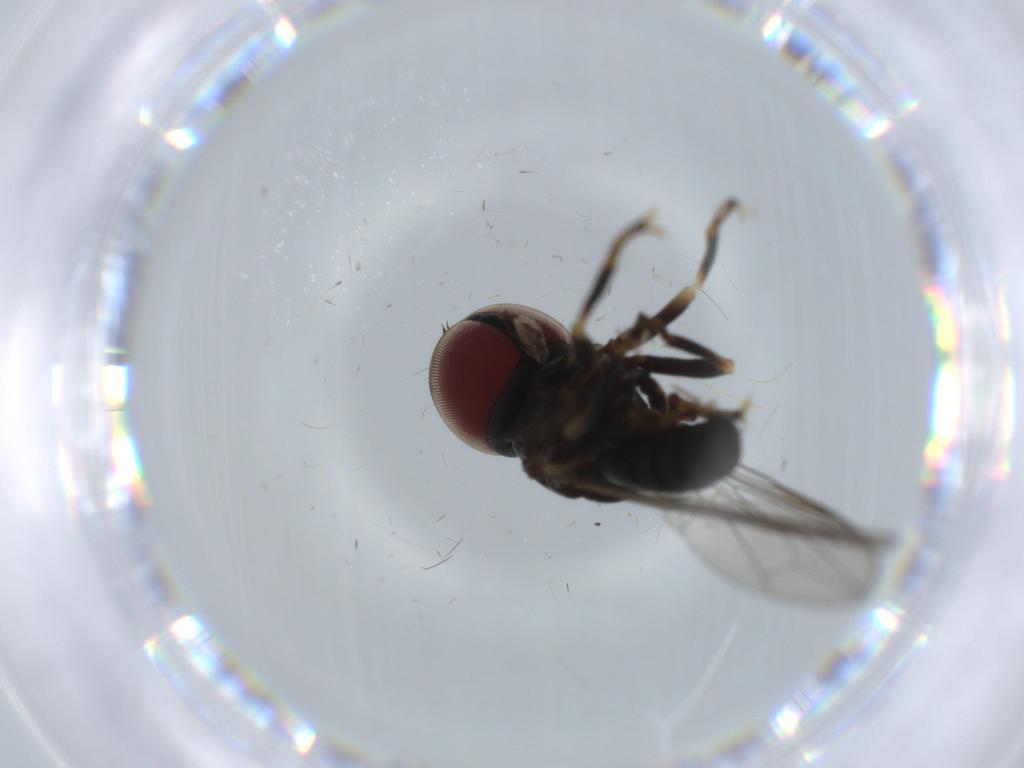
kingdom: Animalia
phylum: Arthropoda
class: Insecta
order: Diptera
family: Pipunculidae
